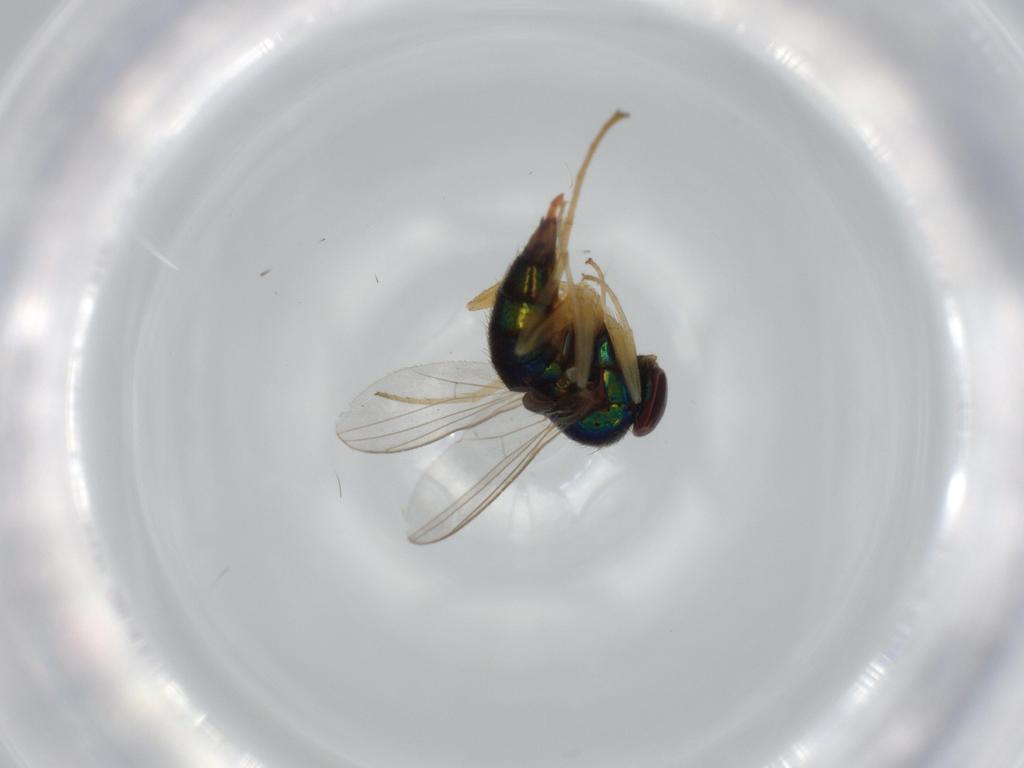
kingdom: Animalia
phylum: Arthropoda
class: Insecta
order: Diptera
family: Dolichopodidae
